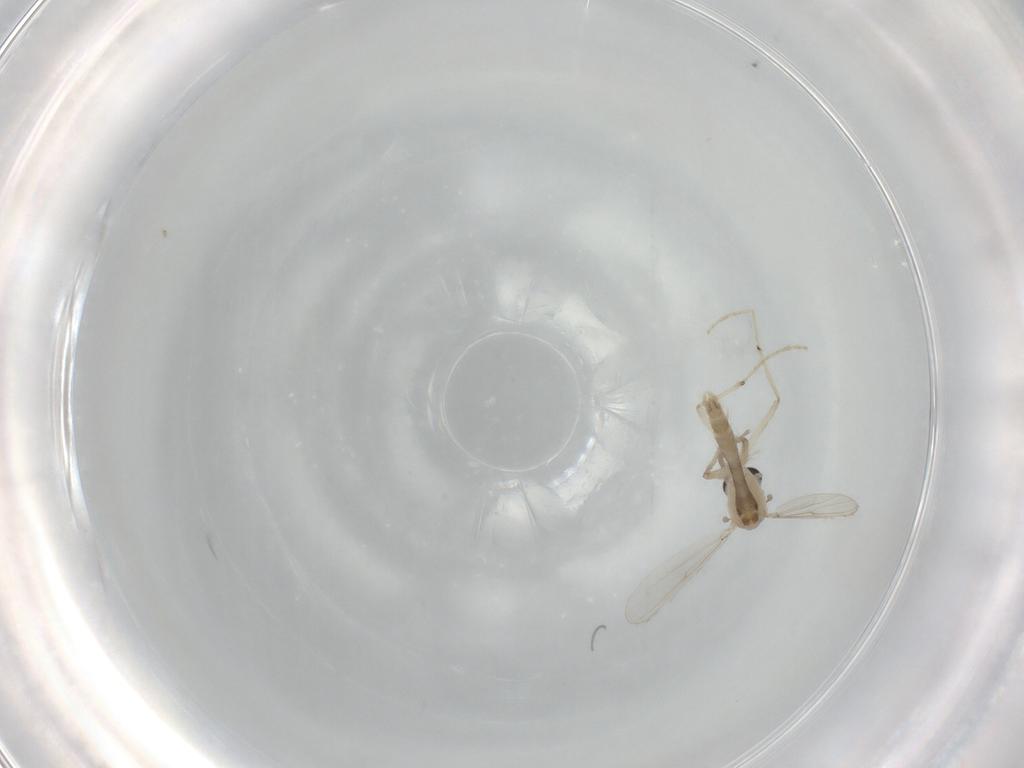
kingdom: Animalia
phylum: Arthropoda
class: Insecta
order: Diptera
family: Chironomidae
